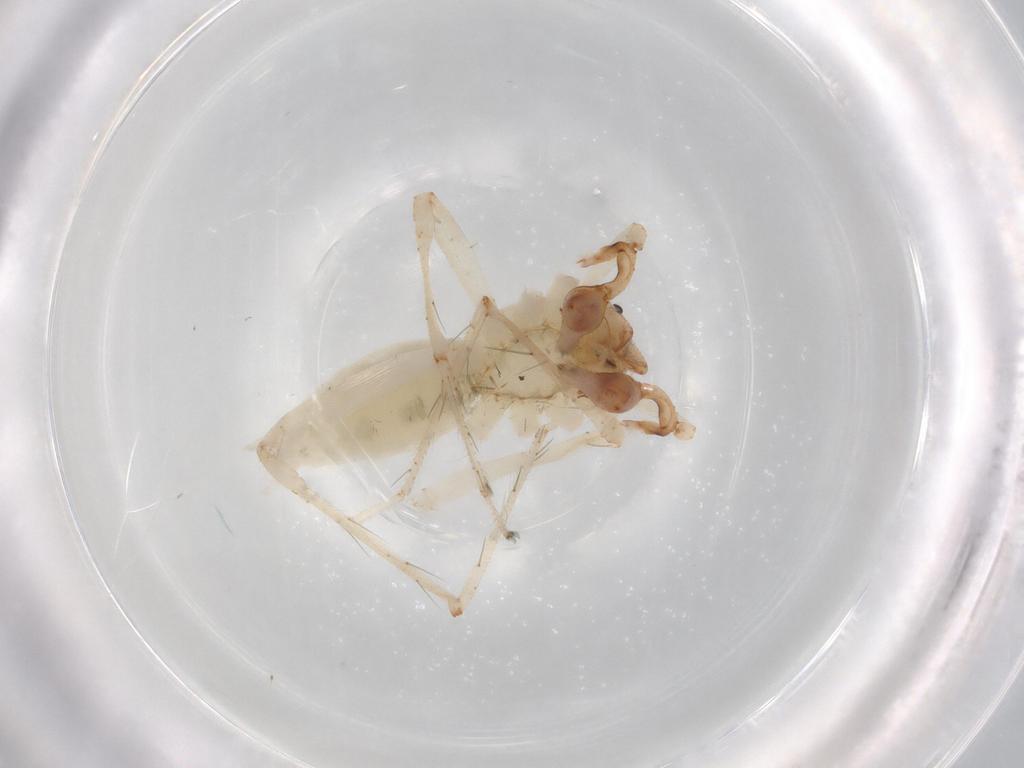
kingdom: Animalia
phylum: Arthropoda
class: Arachnida
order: Araneae
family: Anyphaenidae
